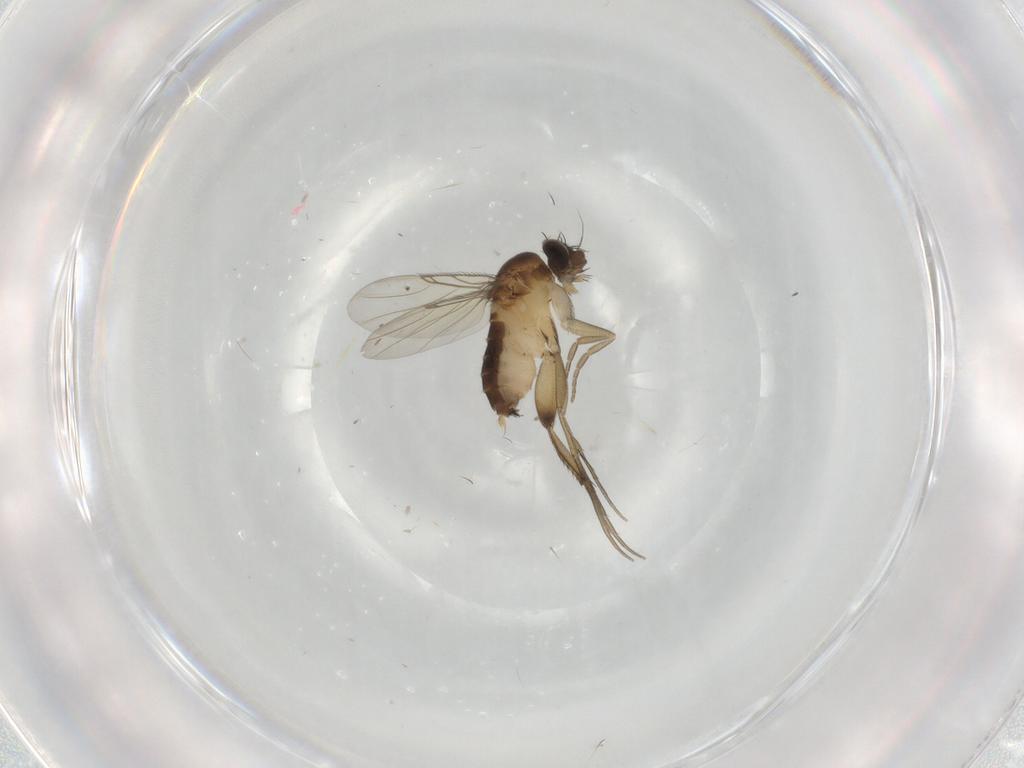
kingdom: Animalia
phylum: Arthropoda
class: Insecta
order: Diptera
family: Phoridae
